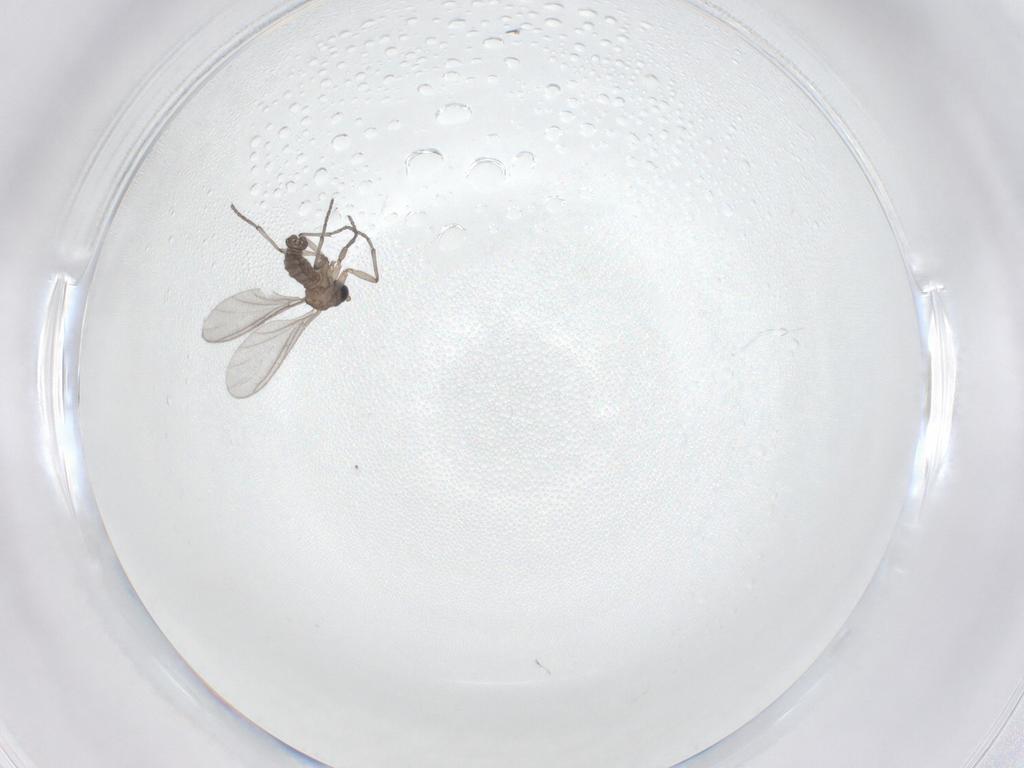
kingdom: Animalia
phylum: Arthropoda
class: Insecta
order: Diptera
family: Sciaridae
